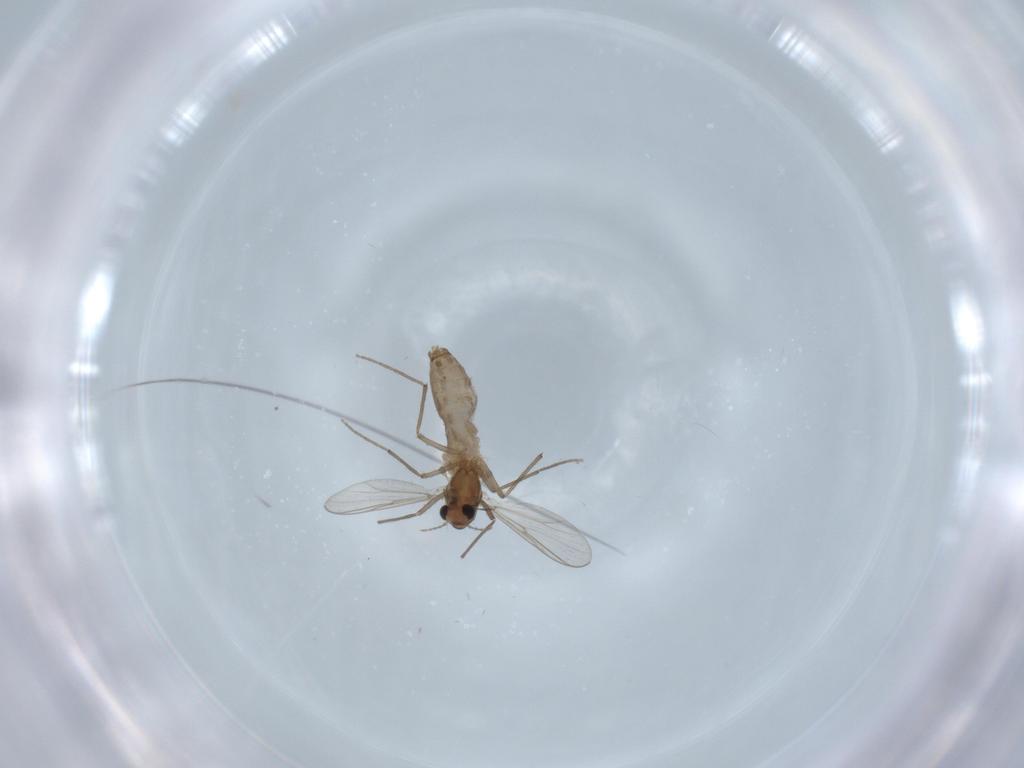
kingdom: Animalia
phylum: Arthropoda
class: Insecta
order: Diptera
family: Chironomidae
